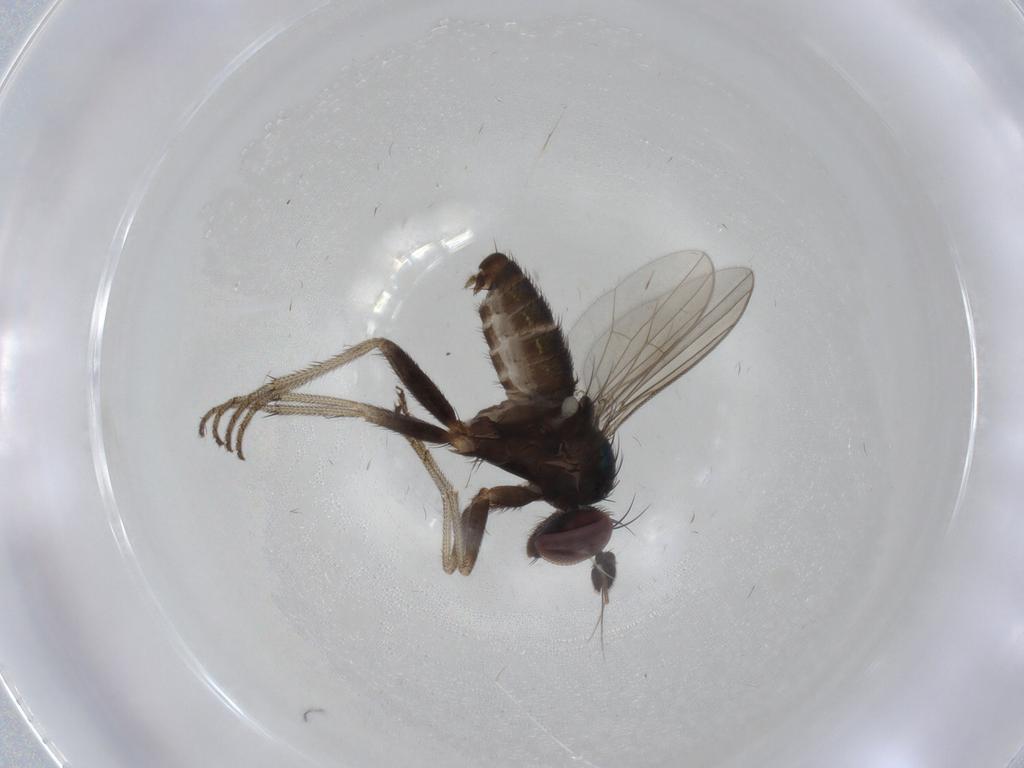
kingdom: Animalia
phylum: Arthropoda
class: Insecta
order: Diptera
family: Dolichopodidae
